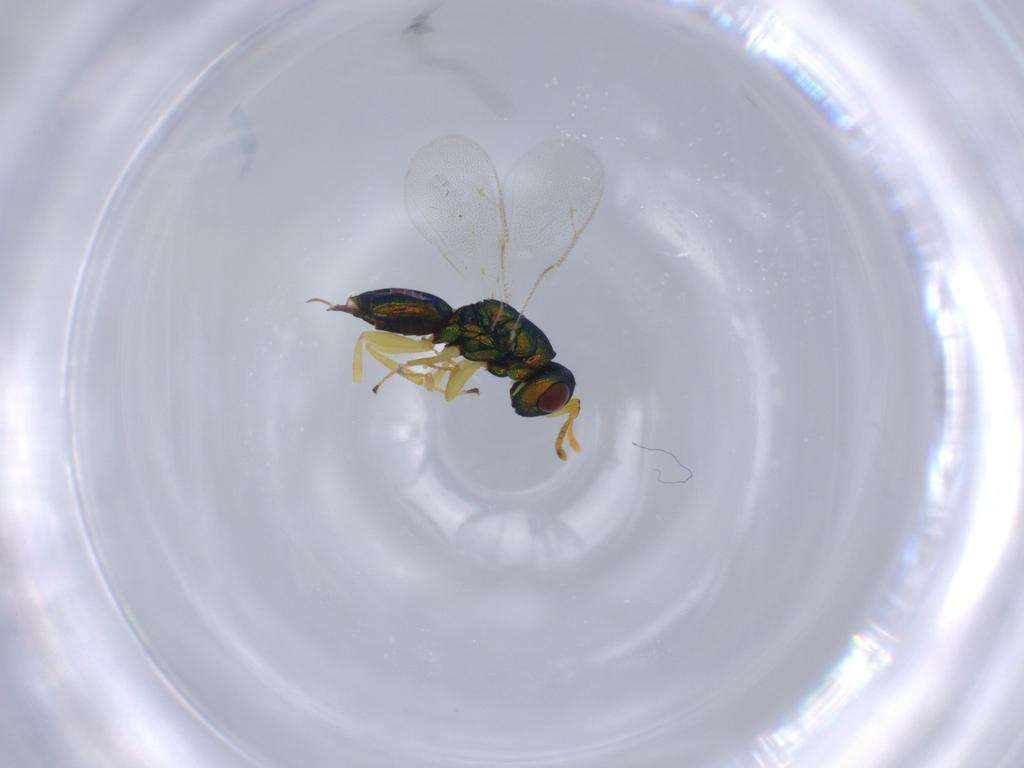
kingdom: Animalia
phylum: Arthropoda
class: Insecta
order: Hymenoptera
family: Pteromalidae
